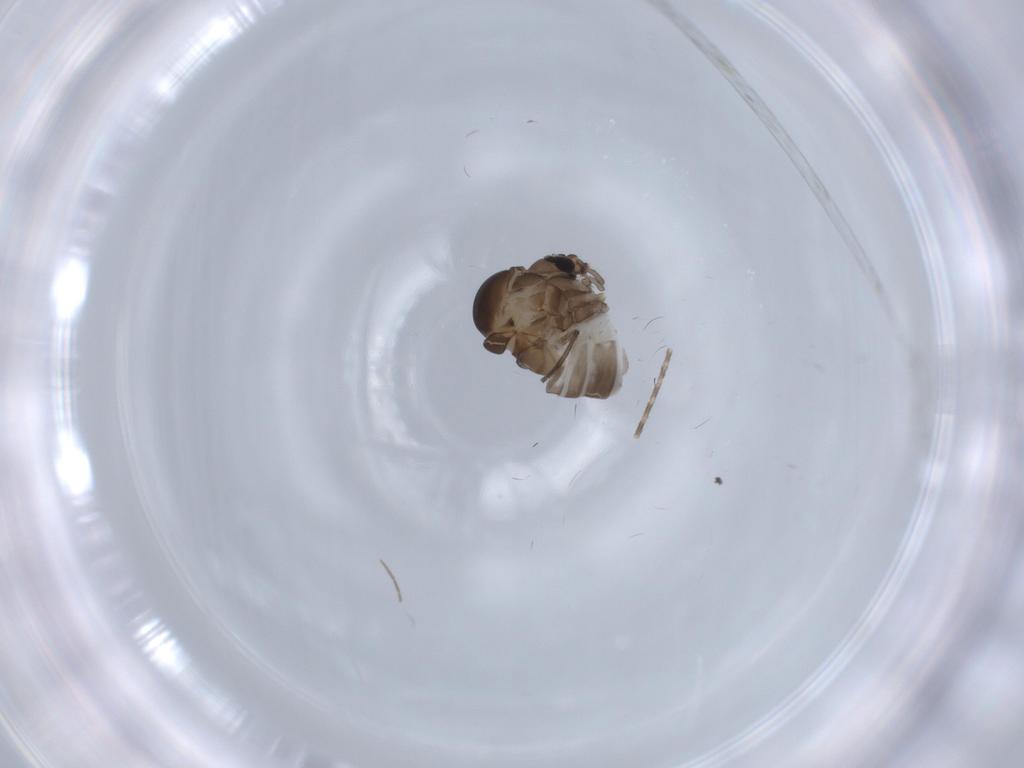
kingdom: Animalia
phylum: Arthropoda
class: Insecta
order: Diptera
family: Psychodidae
